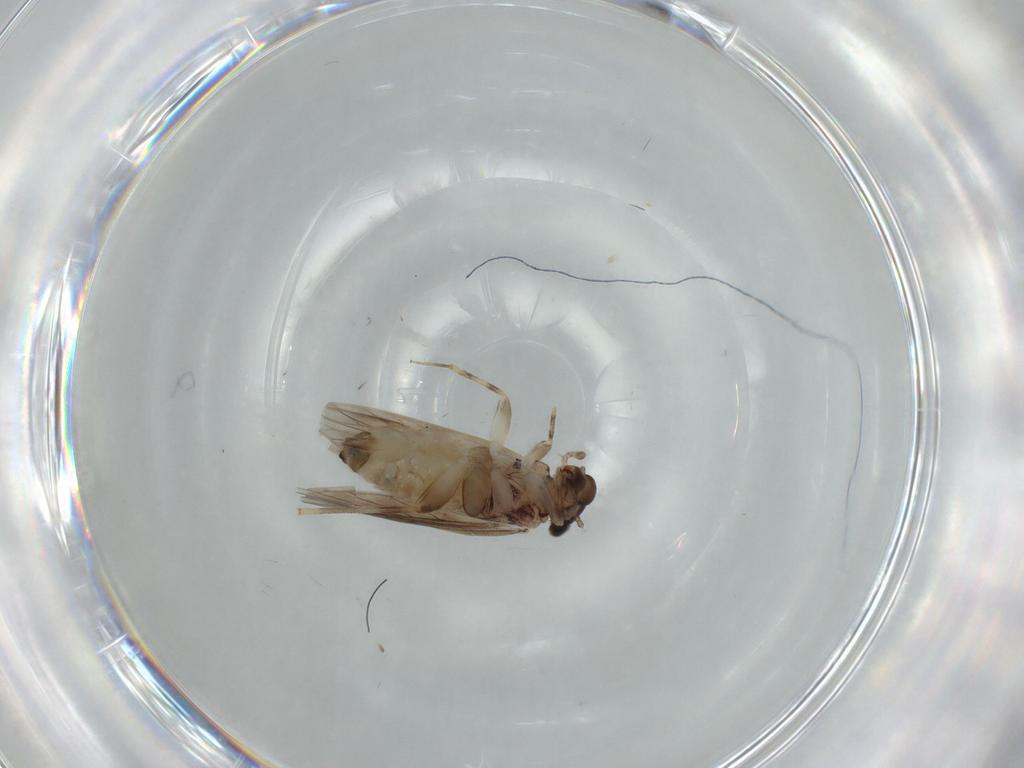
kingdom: Animalia
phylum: Arthropoda
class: Insecta
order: Psocodea
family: Lepidopsocidae
